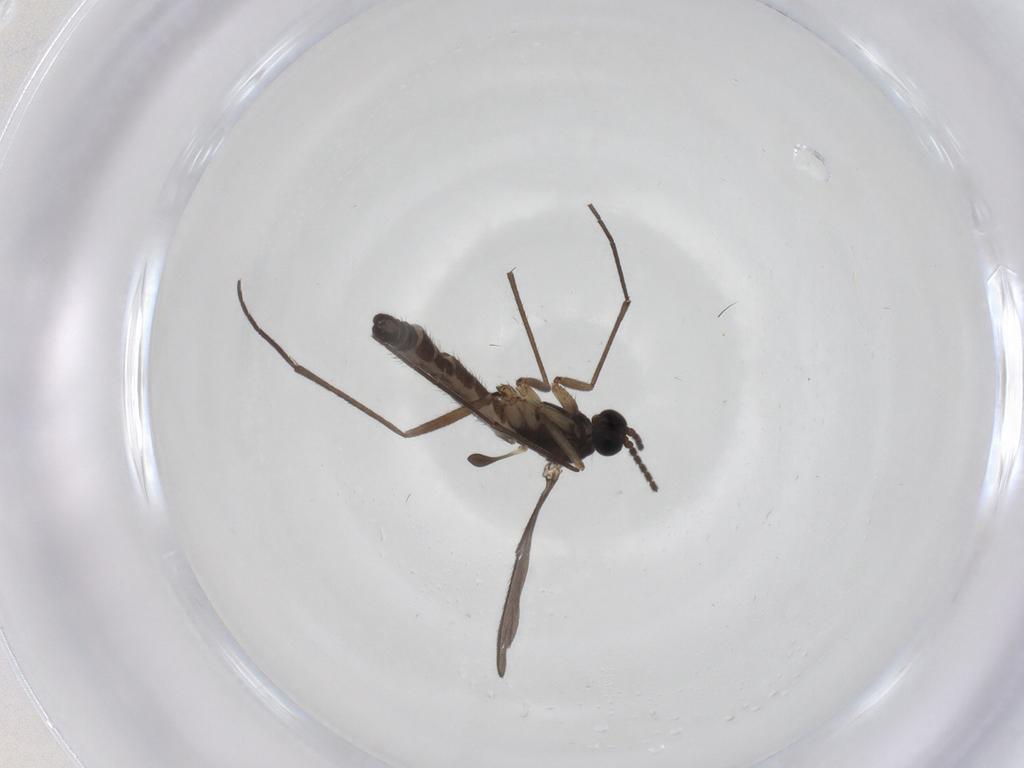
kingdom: Animalia
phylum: Arthropoda
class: Insecta
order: Diptera
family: Sciaridae
